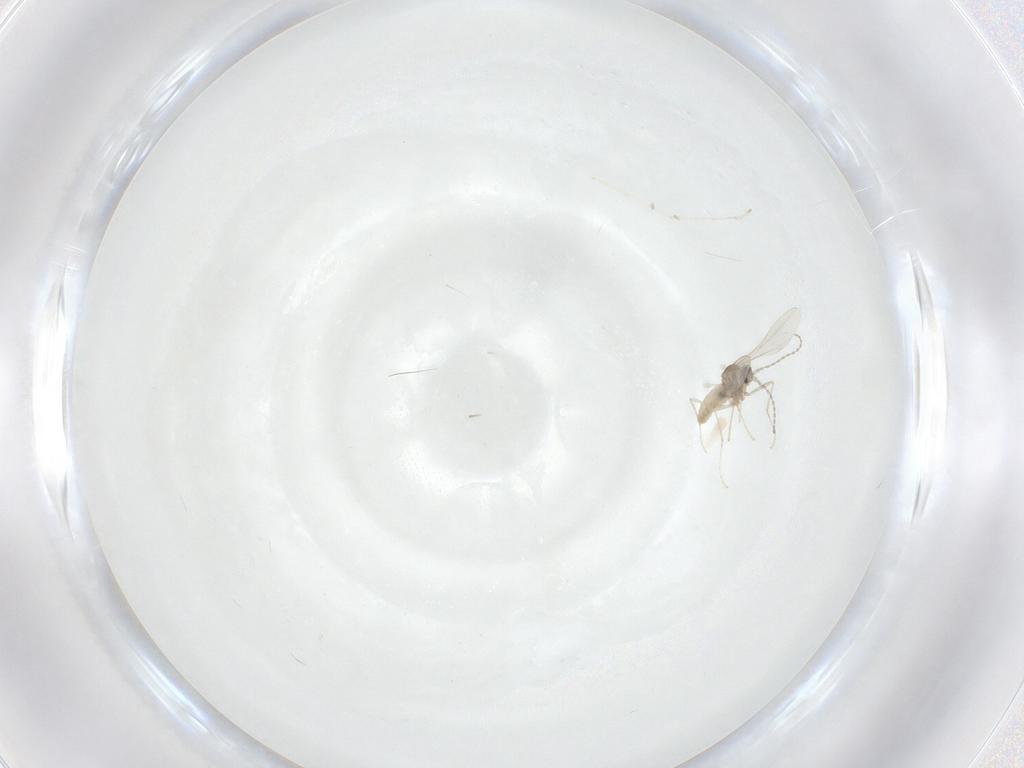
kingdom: Animalia
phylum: Arthropoda
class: Insecta
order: Diptera
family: Cecidomyiidae
